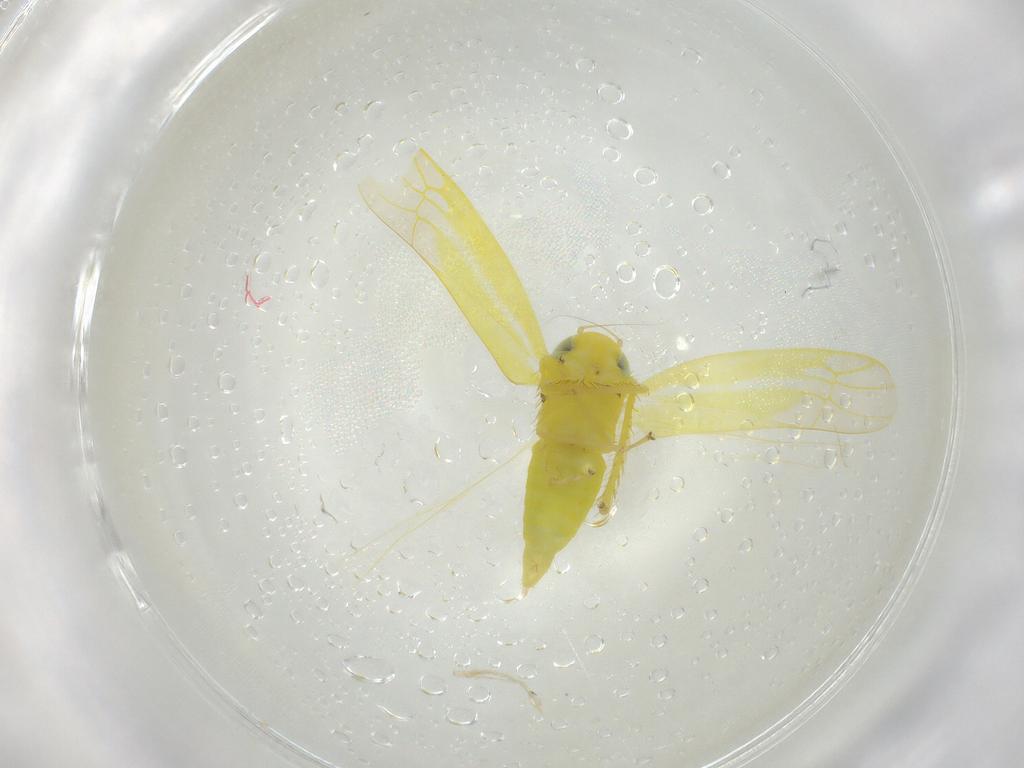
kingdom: Animalia
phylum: Arthropoda
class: Insecta
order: Hemiptera
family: Cicadellidae
